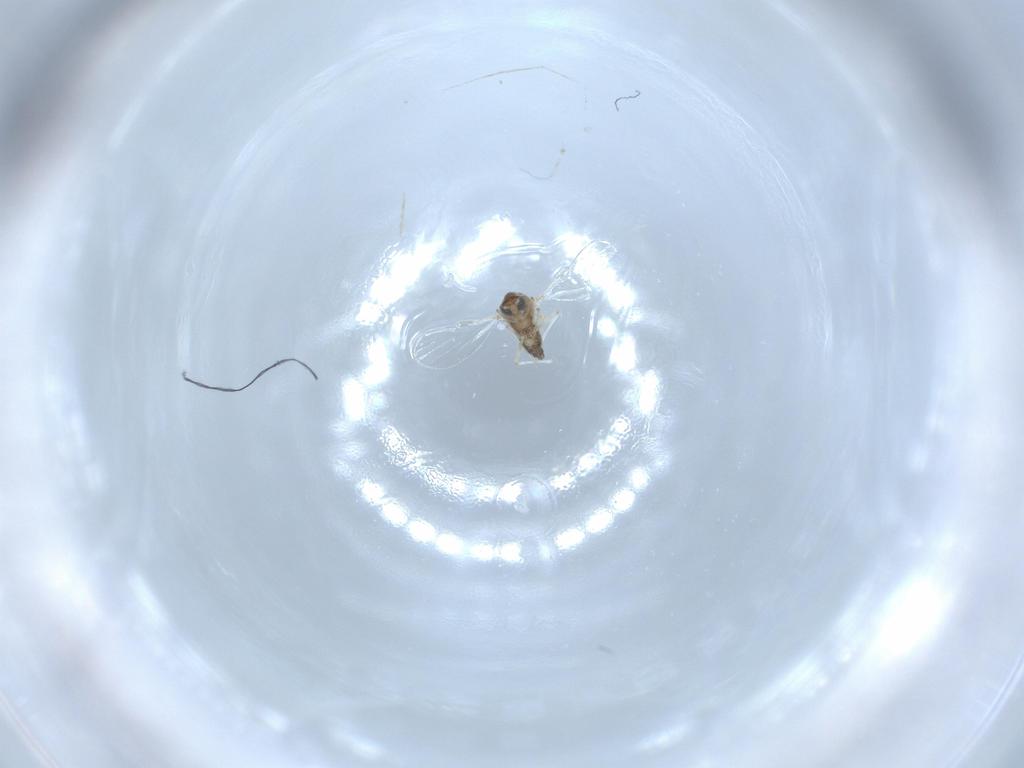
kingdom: Animalia
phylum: Arthropoda
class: Insecta
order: Diptera
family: Chironomidae
